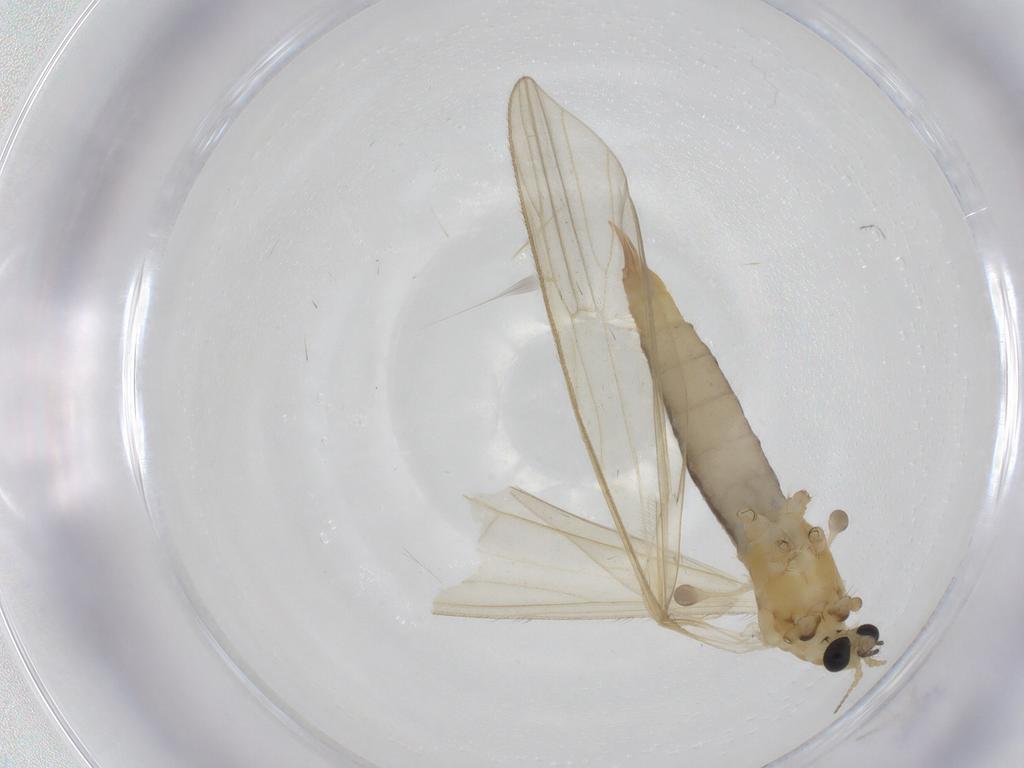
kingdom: Animalia
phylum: Arthropoda
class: Insecta
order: Diptera
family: Limoniidae
